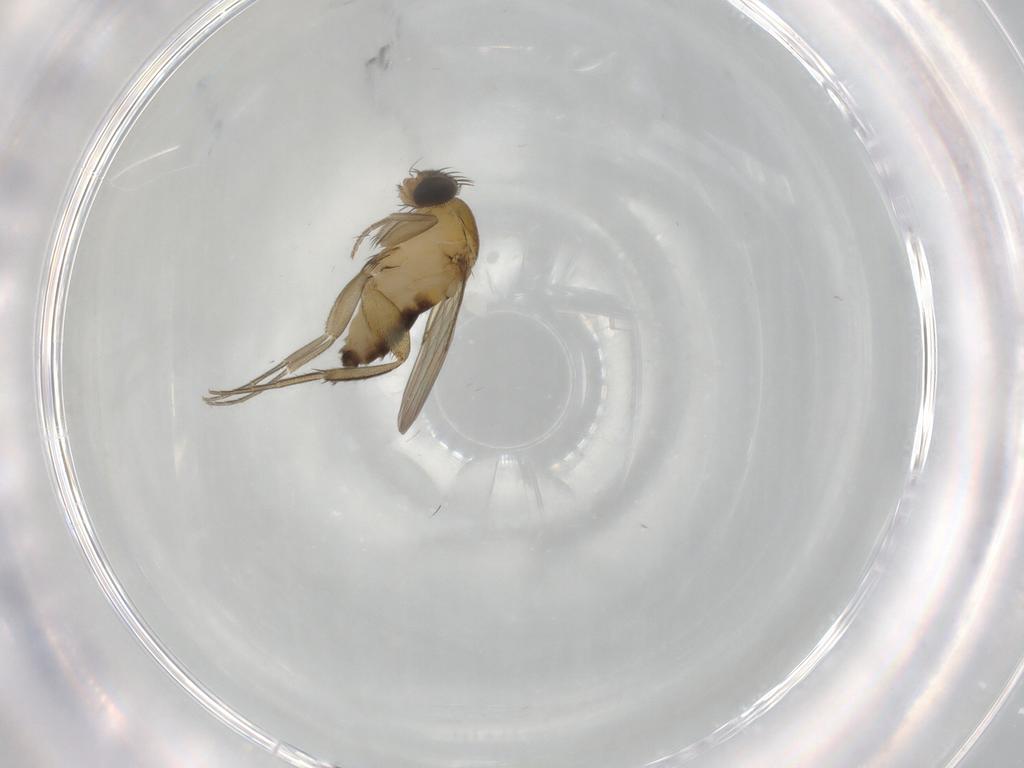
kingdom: Animalia
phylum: Arthropoda
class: Insecta
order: Diptera
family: Phoridae
